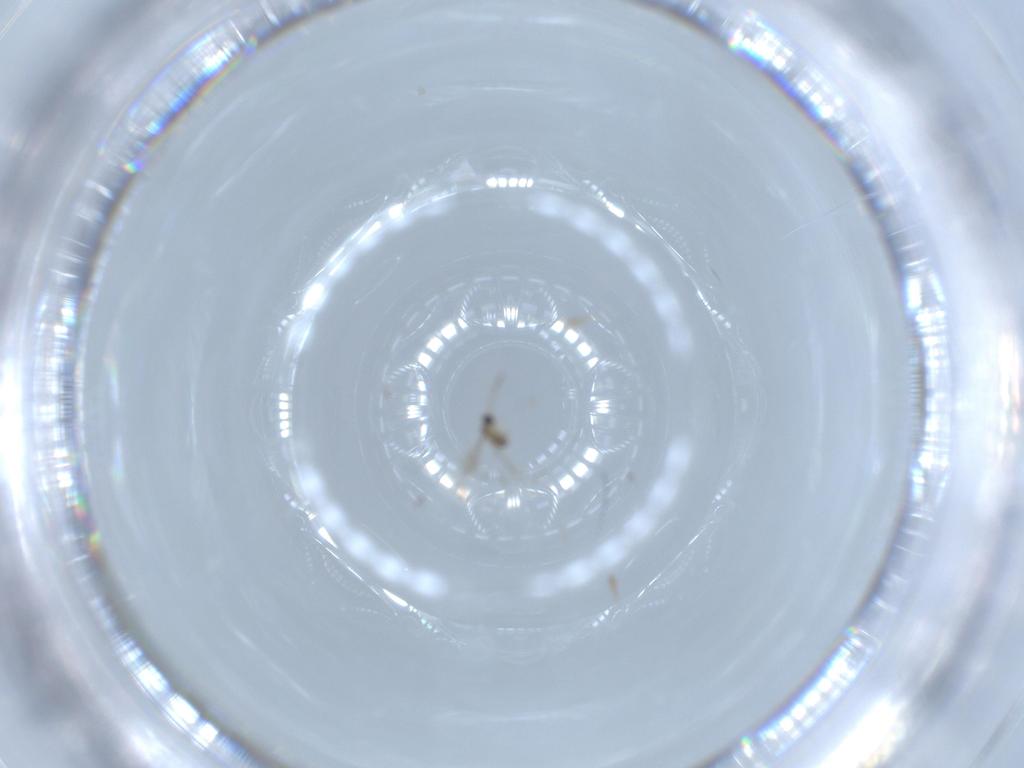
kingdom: Animalia
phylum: Arthropoda
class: Insecta
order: Hymenoptera
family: Scelionidae
